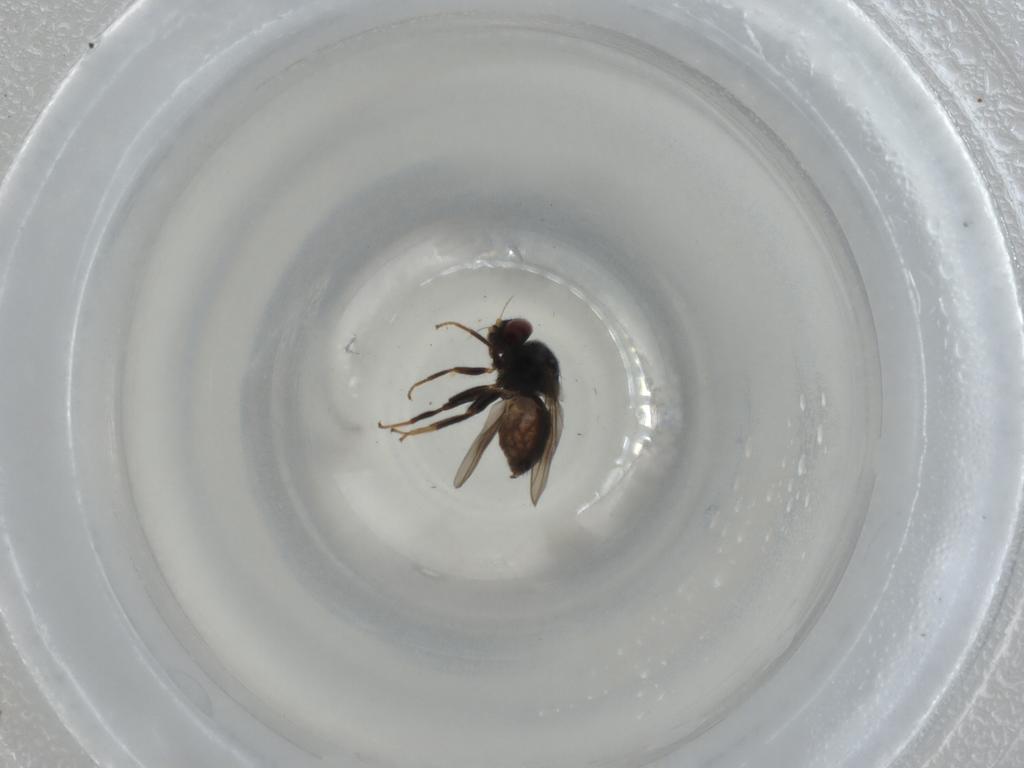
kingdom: Animalia
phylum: Arthropoda
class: Insecta
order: Diptera
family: Chloropidae
